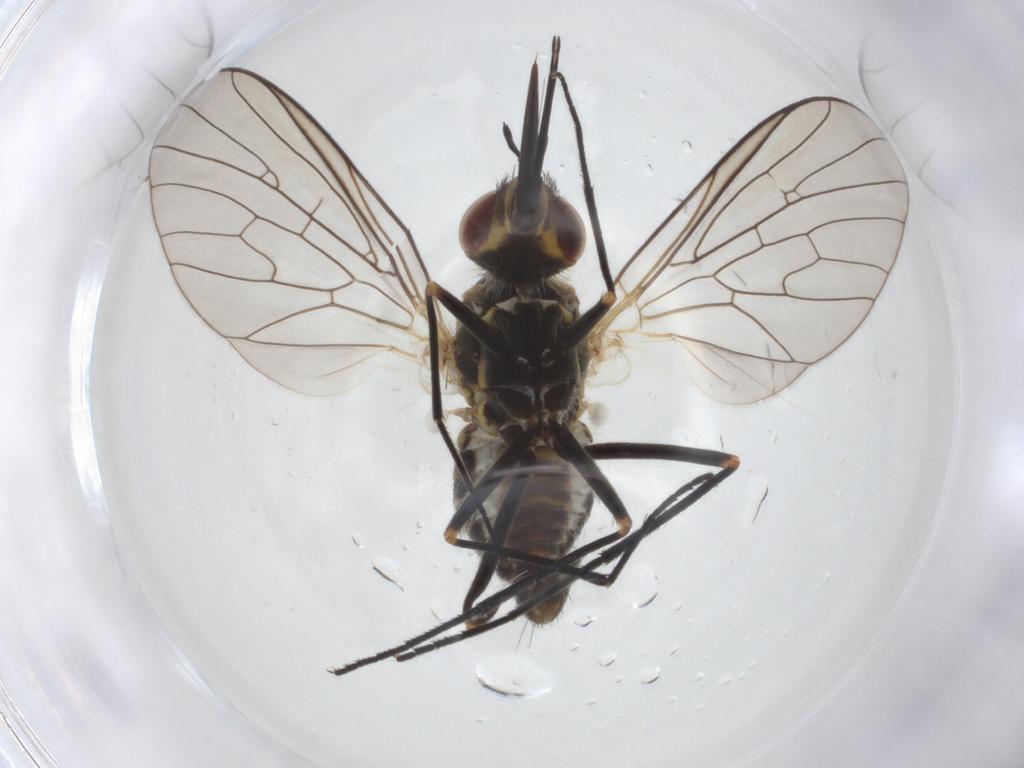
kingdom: Animalia
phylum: Arthropoda
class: Insecta
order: Diptera
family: Bombyliidae
